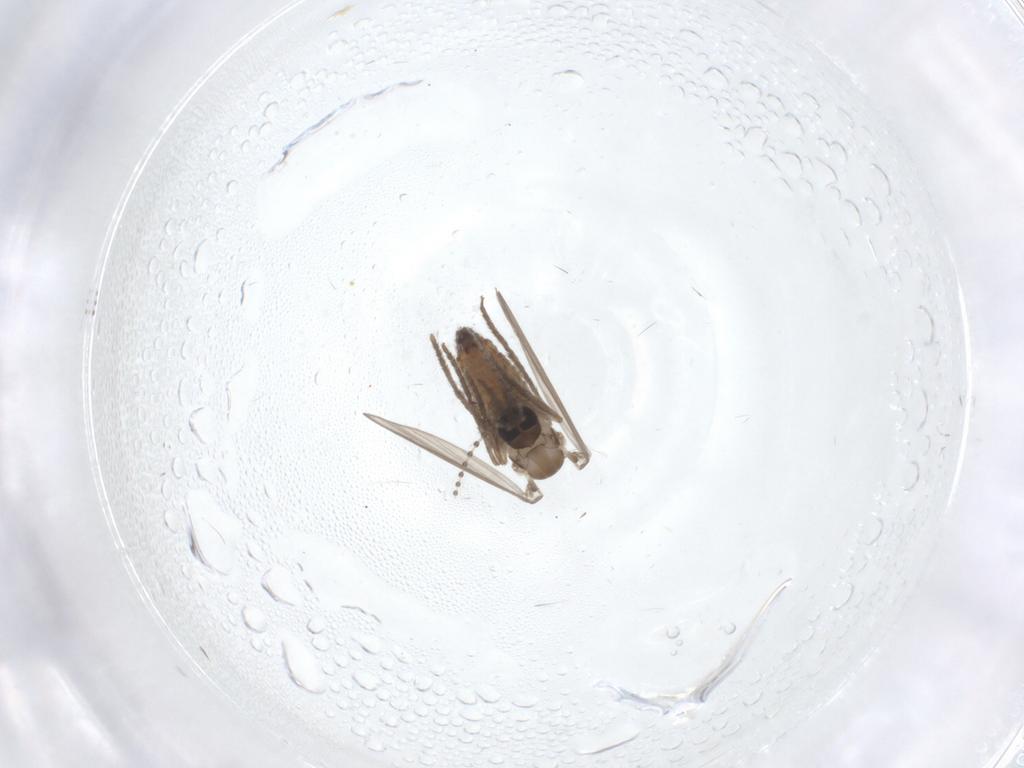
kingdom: Animalia
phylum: Arthropoda
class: Insecta
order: Diptera
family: Psychodidae
